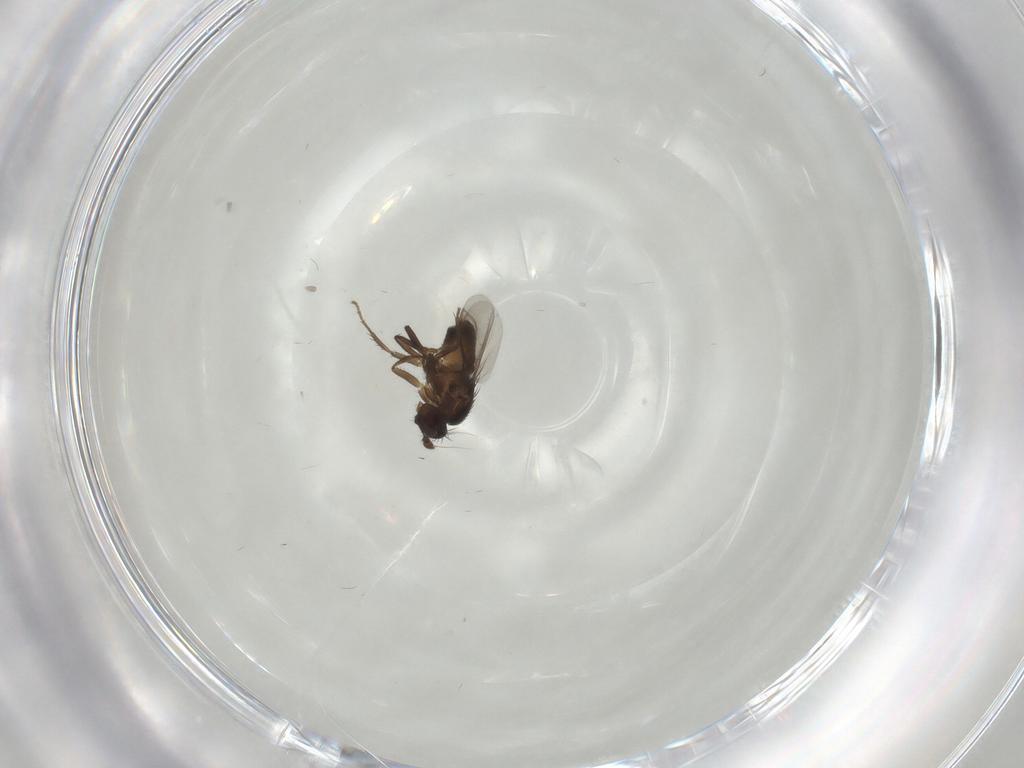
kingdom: Animalia
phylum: Arthropoda
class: Insecta
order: Diptera
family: Sphaeroceridae
